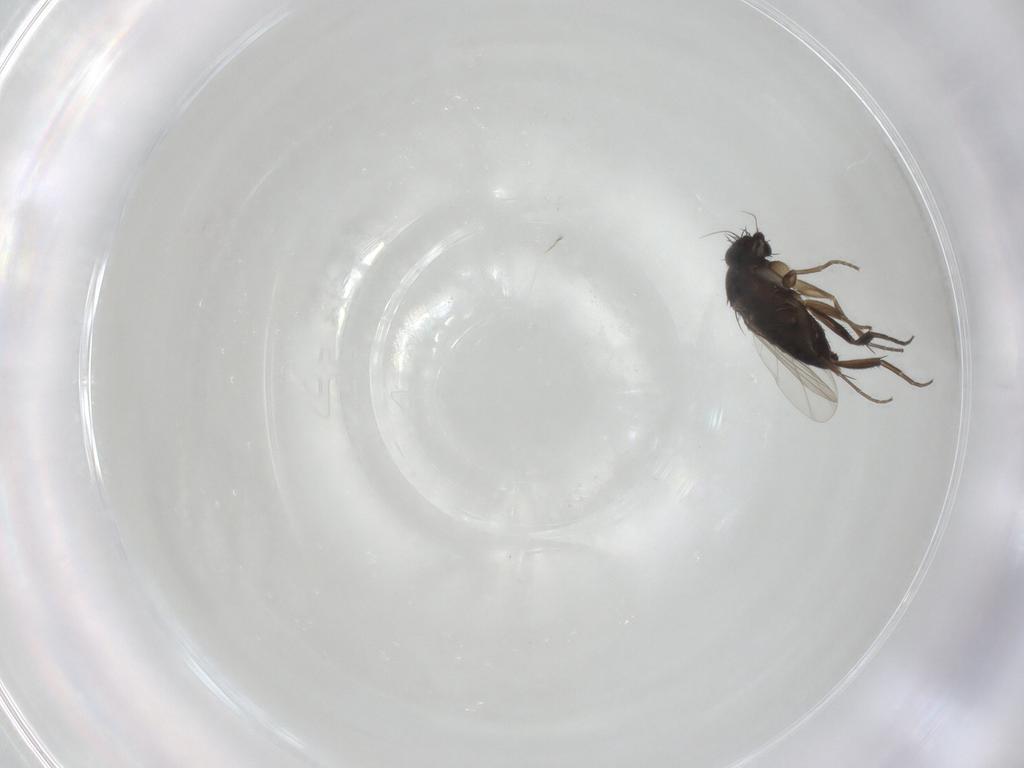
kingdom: Animalia
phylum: Arthropoda
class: Insecta
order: Diptera
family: Phoridae
